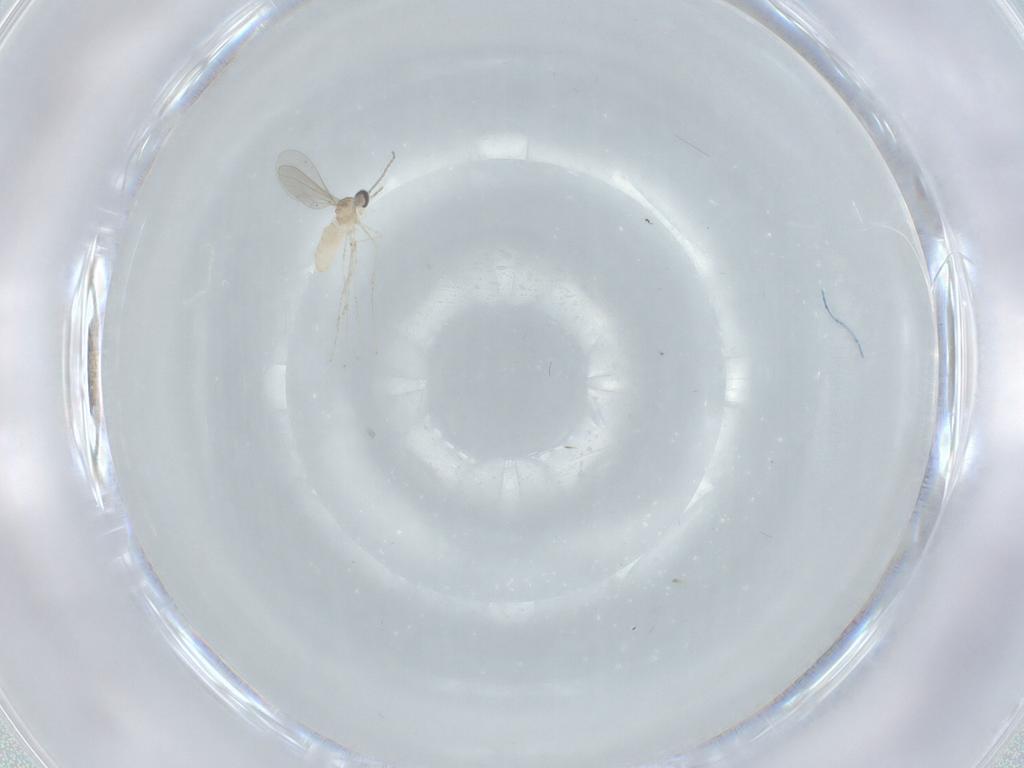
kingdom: Animalia
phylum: Arthropoda
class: Insecta
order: Diptera
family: Cecidomyiidae
